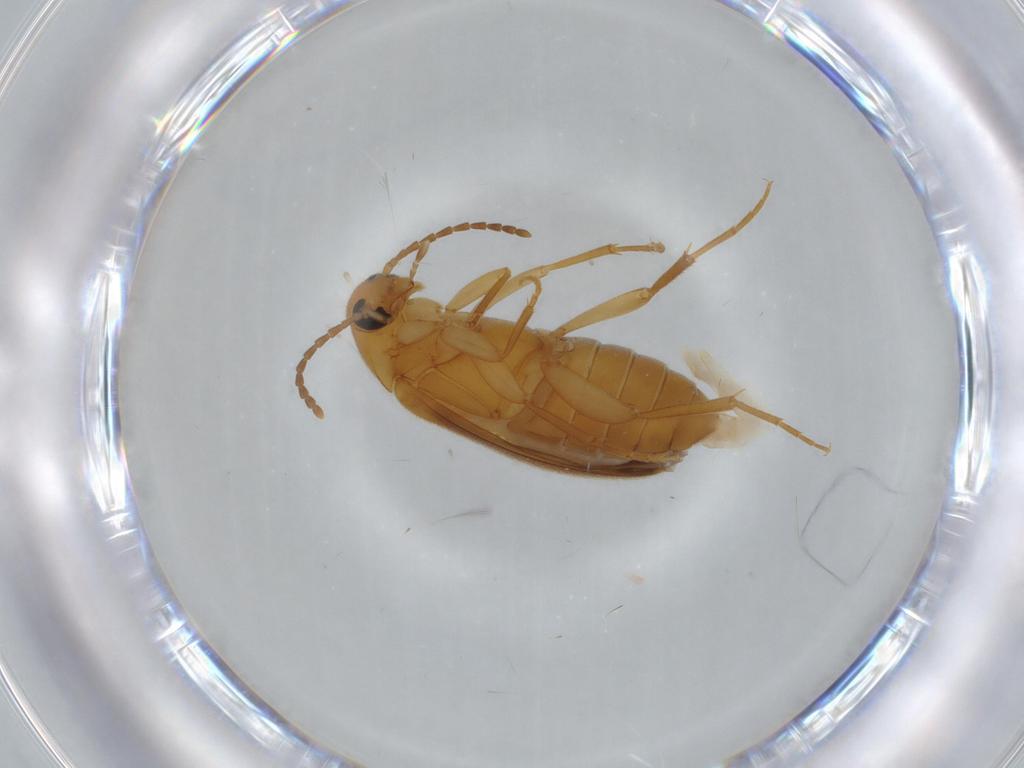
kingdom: Animalia
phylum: Arthropoda
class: Insecta
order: Coleoptera
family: Scraptiidae
